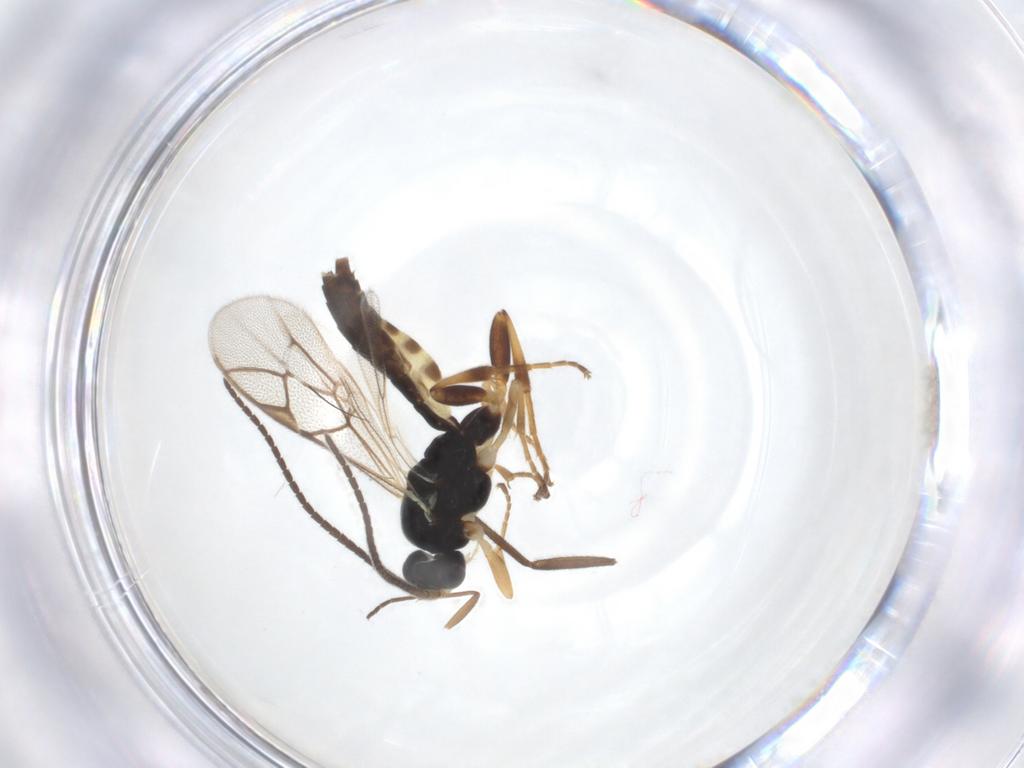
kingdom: Animalia
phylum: Arthropoda
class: Insecta
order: Hymenoptera
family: Ichneumonidae
